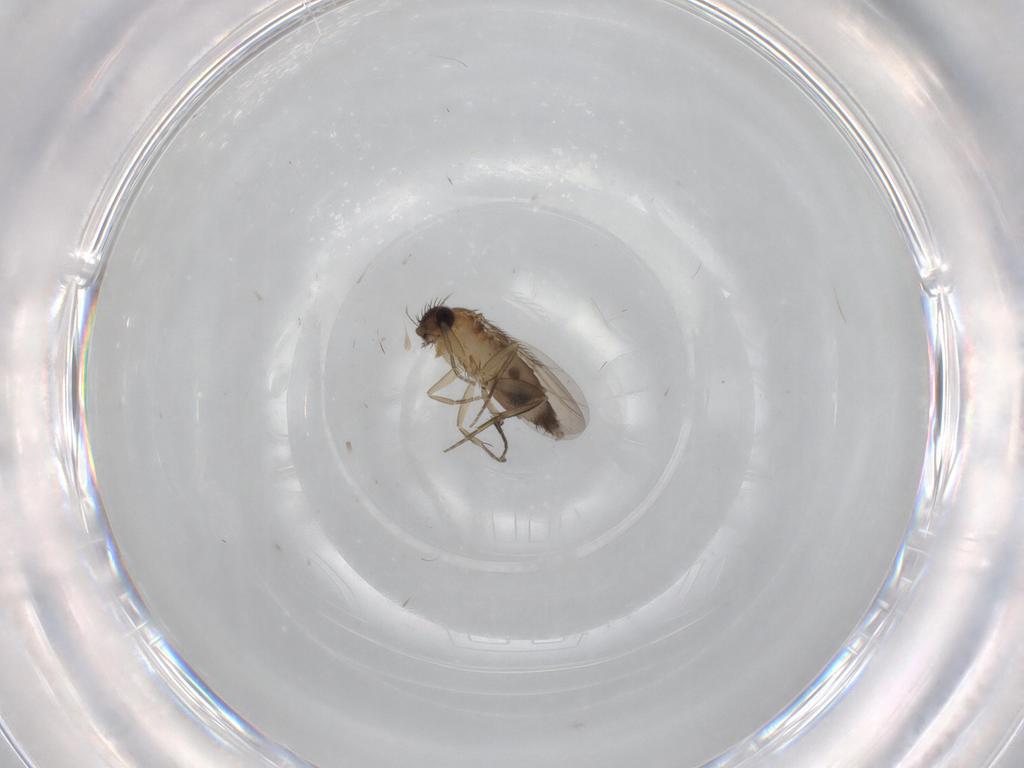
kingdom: Animalia
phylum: Arthropoda
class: Insecta
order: Diptera
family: Phoridae
